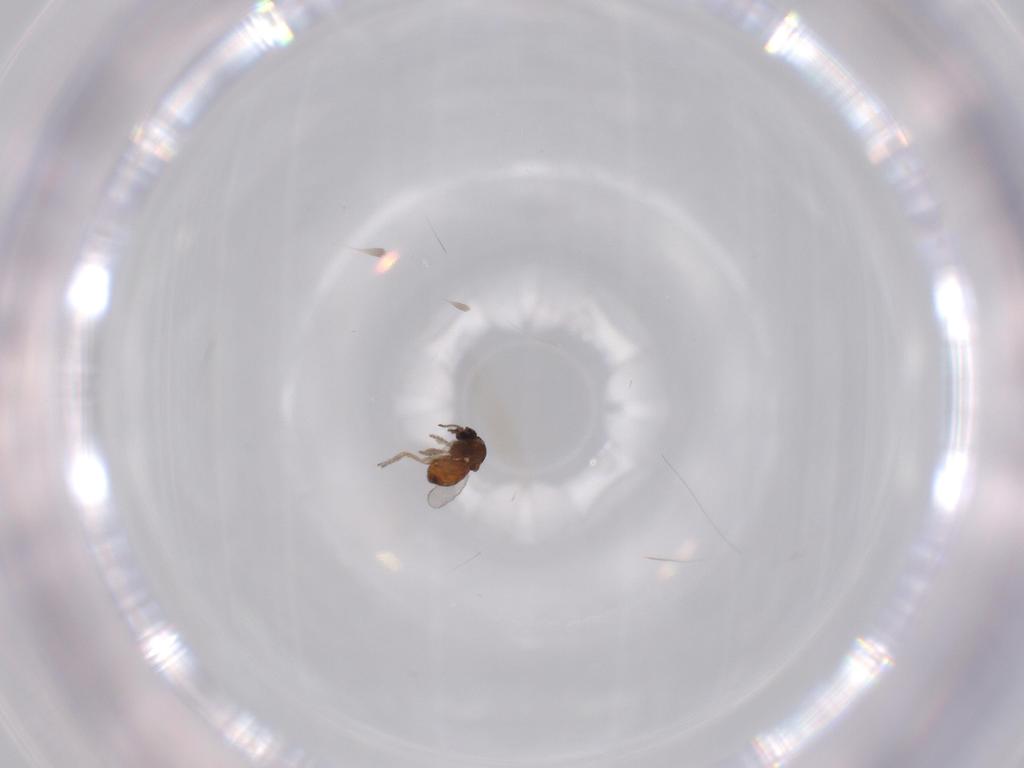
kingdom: Animalia
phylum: Arthropoda
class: Insecta
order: Diptera
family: Ceratopogonidae
